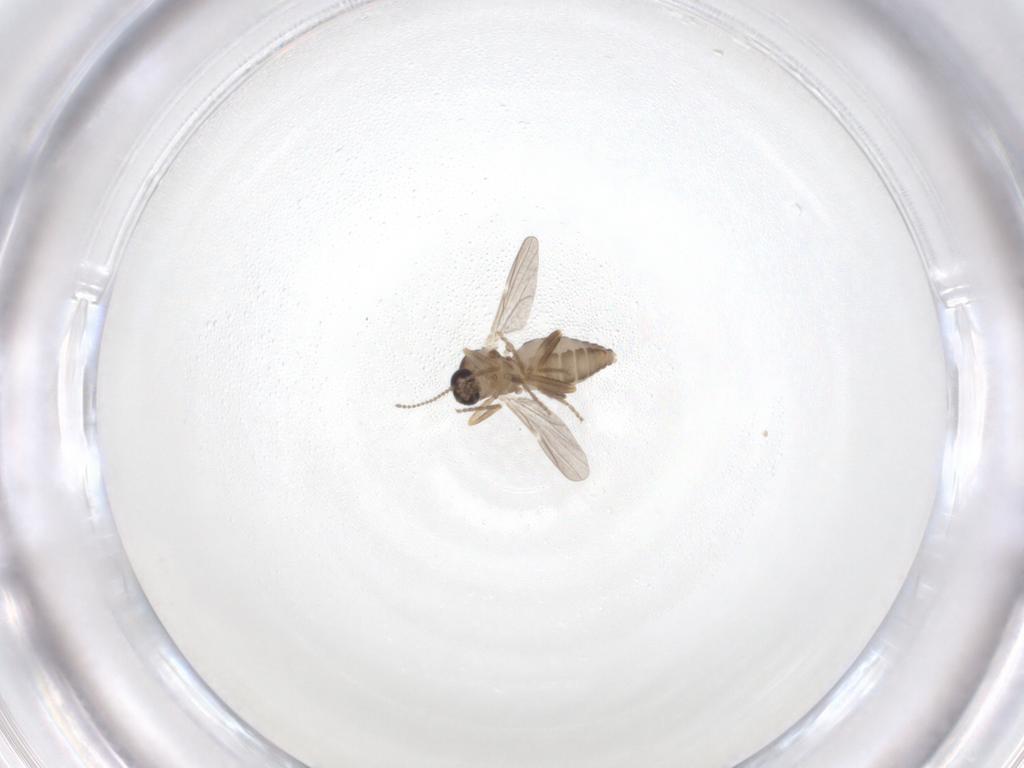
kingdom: Animalia
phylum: Arthropoda
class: Insecta
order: Diptera
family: Ceratopogonidae
